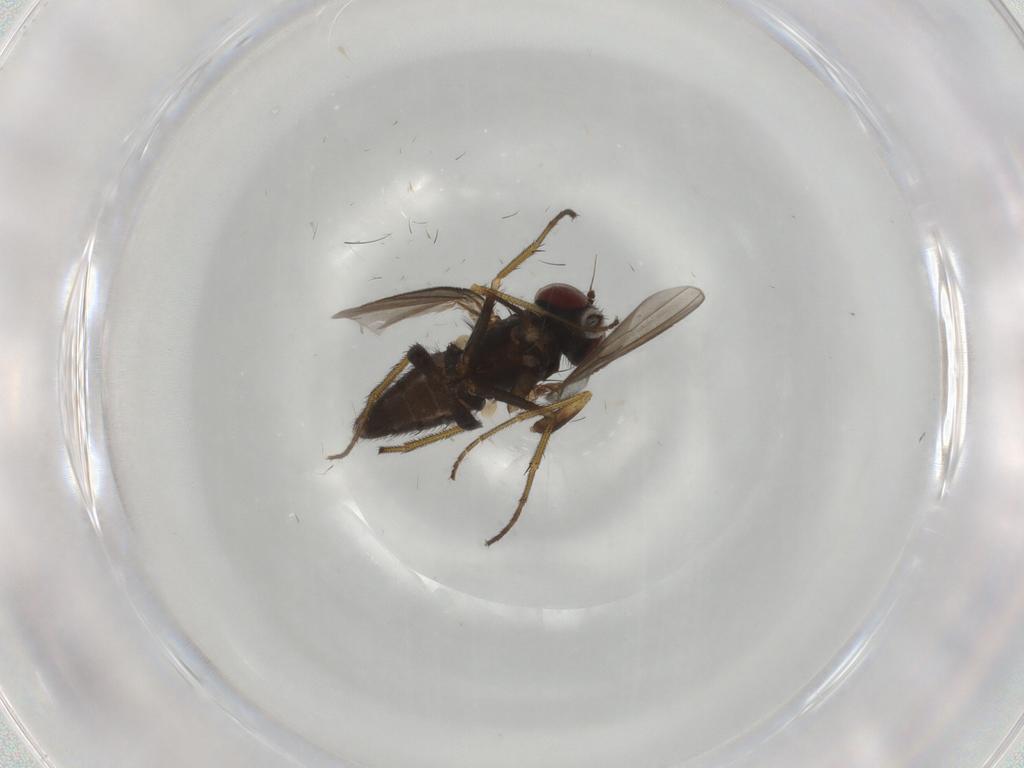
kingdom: Animalia
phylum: Arthropoda
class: Insecta
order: Diptera
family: Dolichopodidae
